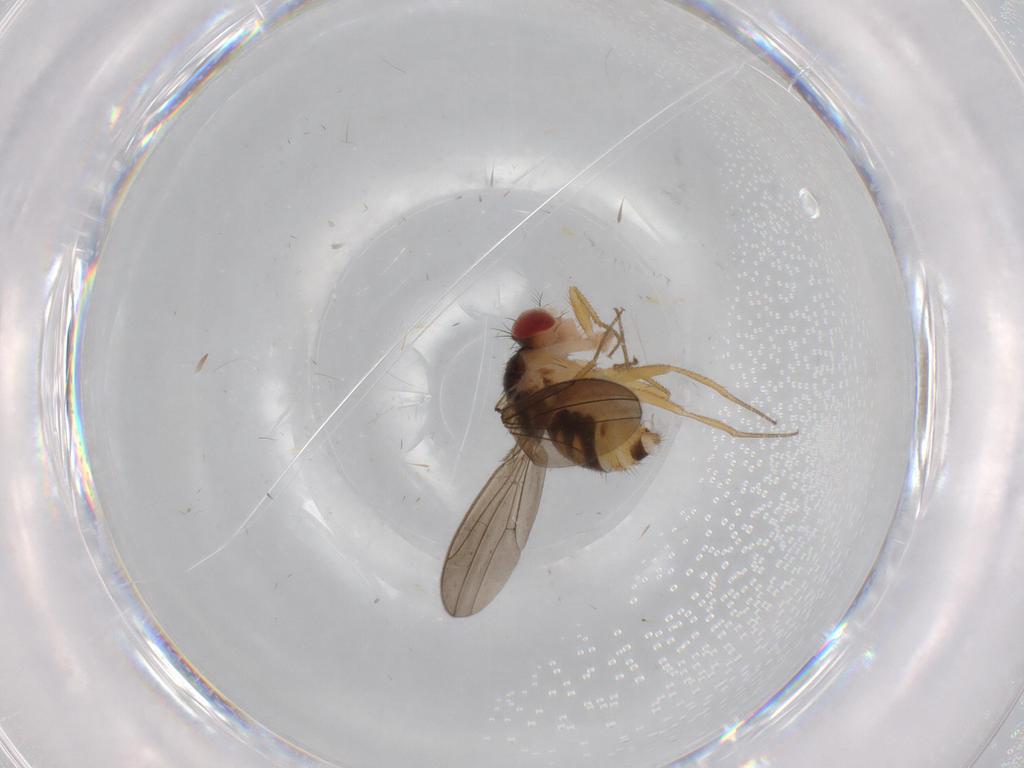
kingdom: Animalia
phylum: Arthropoda
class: Insecta
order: Diptera
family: Drosophilidae
